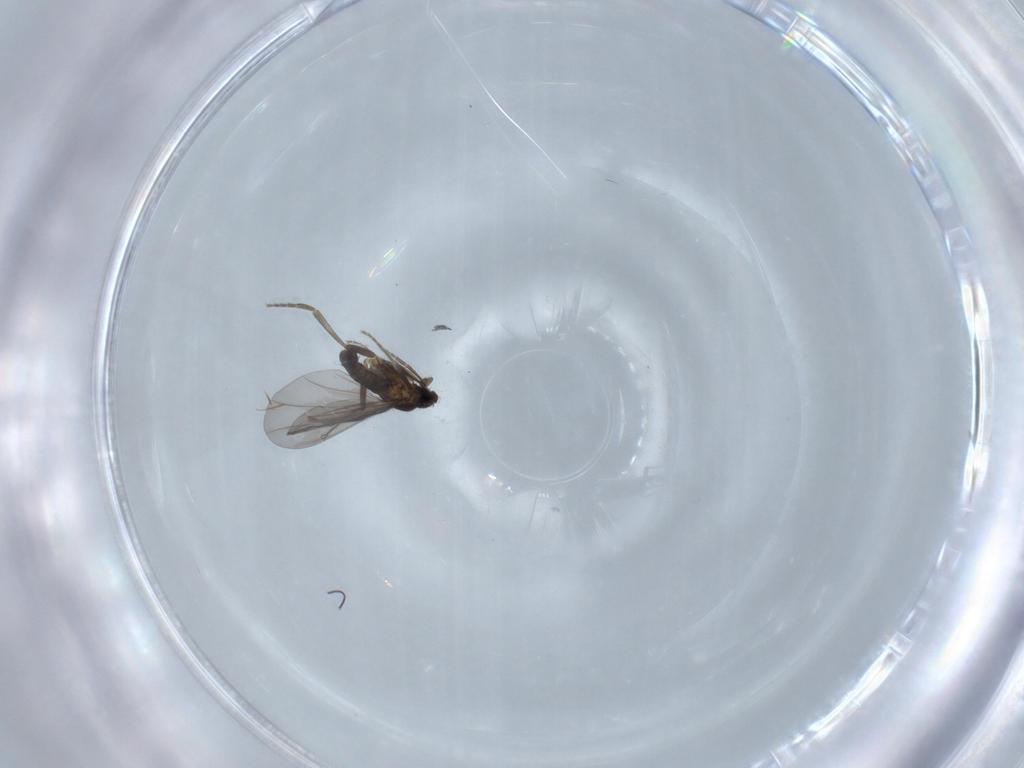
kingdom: Animalia
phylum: Arthropoda
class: Insecta
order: Diptera
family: Phoridae
